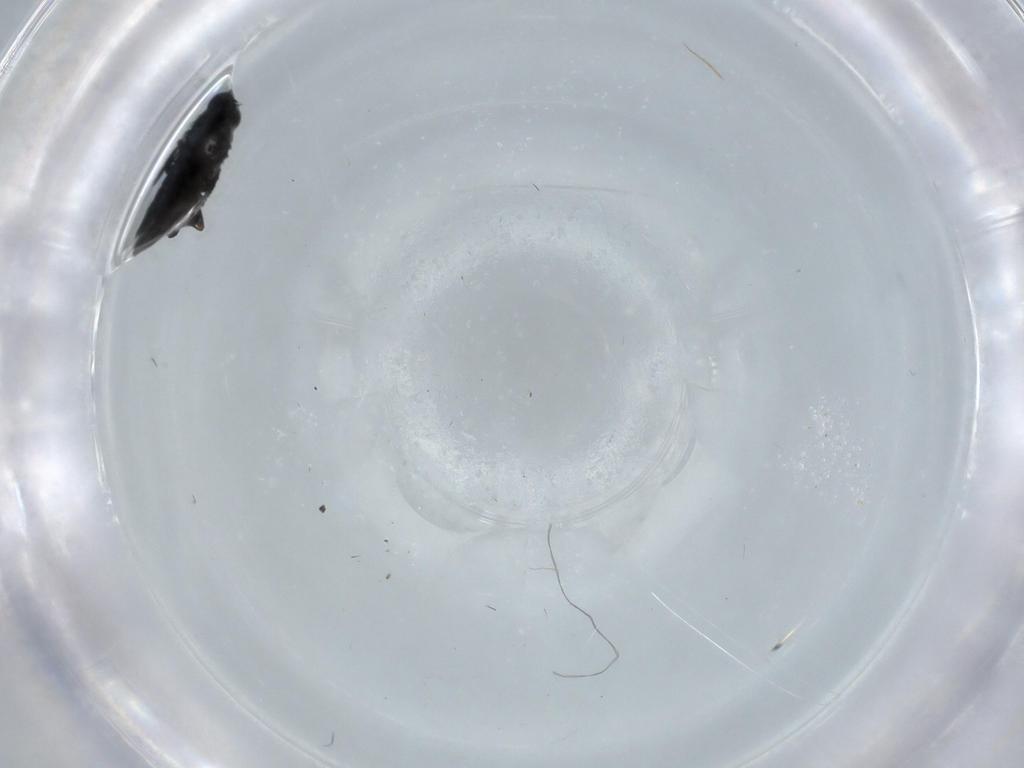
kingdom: Animalia
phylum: Arthropoda
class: Insecta
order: Diptera
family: Phoridae
